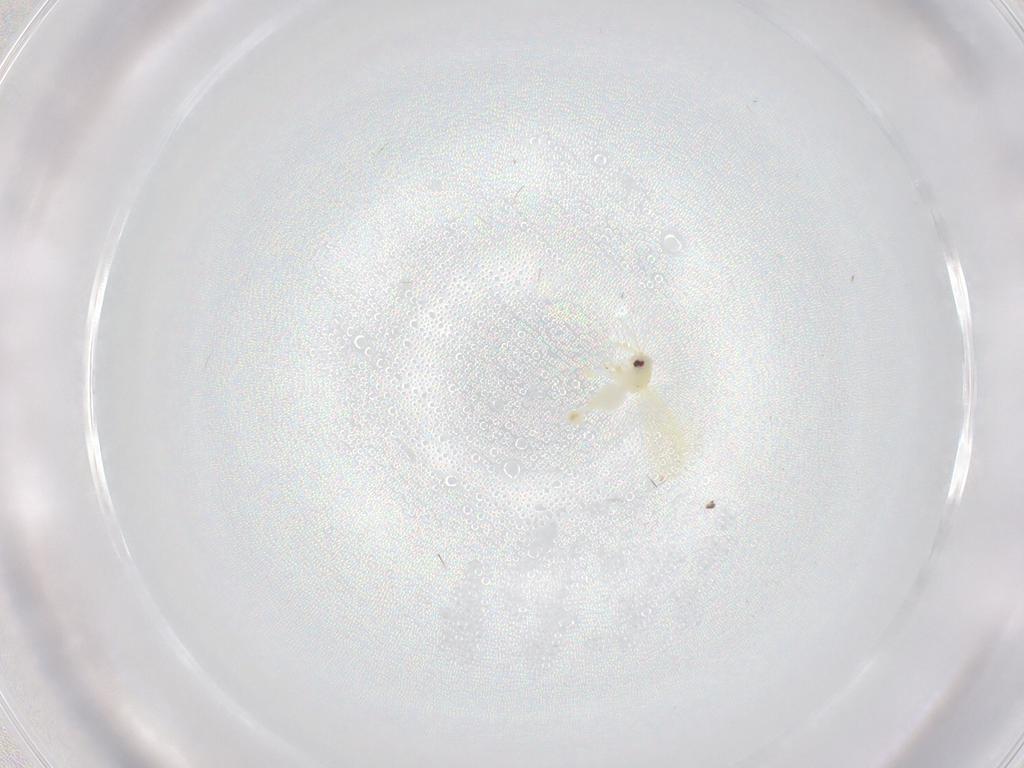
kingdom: Animalia
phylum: Arthropoda
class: Insecta
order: Hemiptera
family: Aleyrodidae
